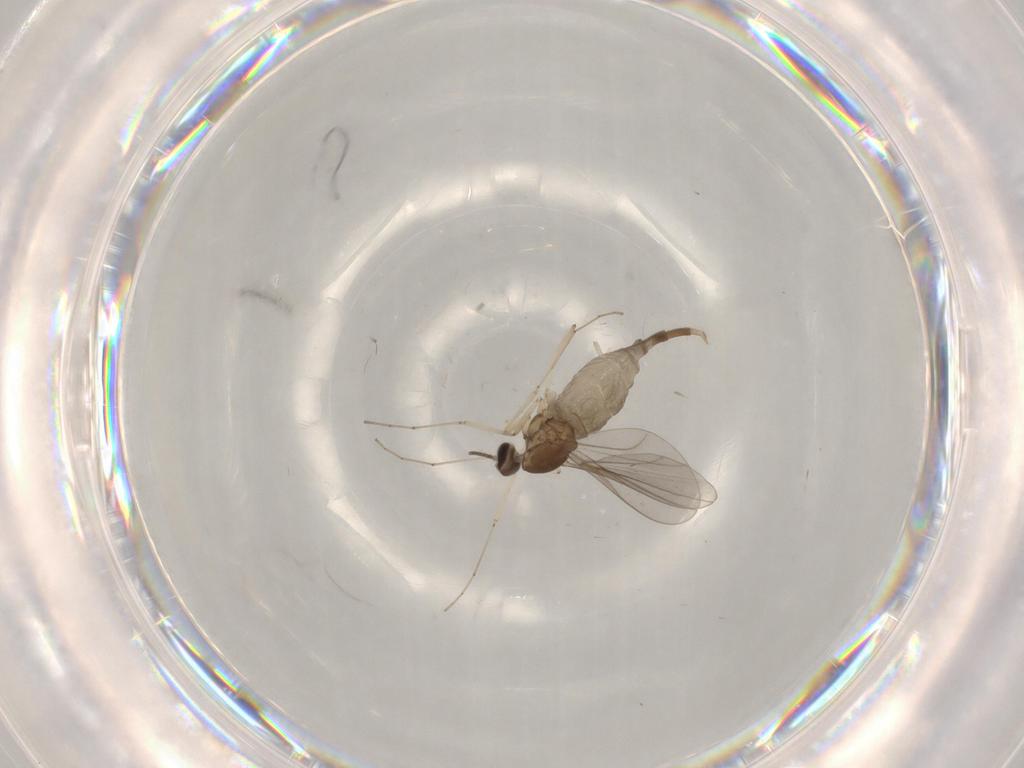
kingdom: Animalia
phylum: Arthropoda
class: Insecta
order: Diptera
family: Cecidomyiidae
